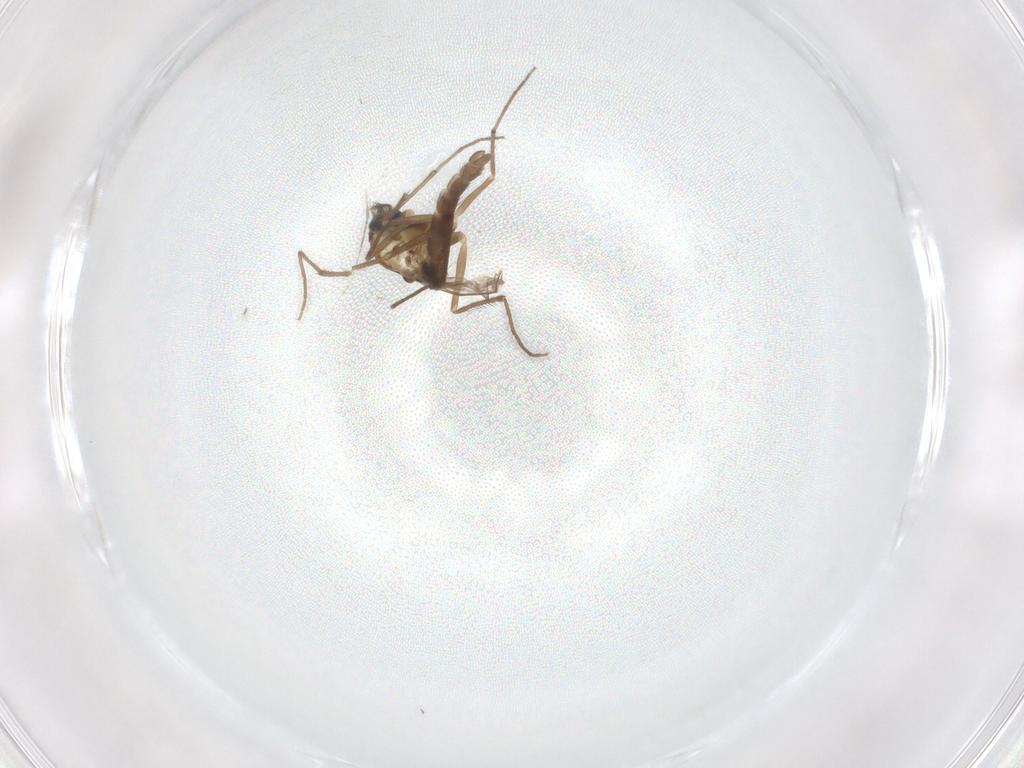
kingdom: Animalia
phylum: Arthropoda
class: Insecta
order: Diptera
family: Chironomidae
